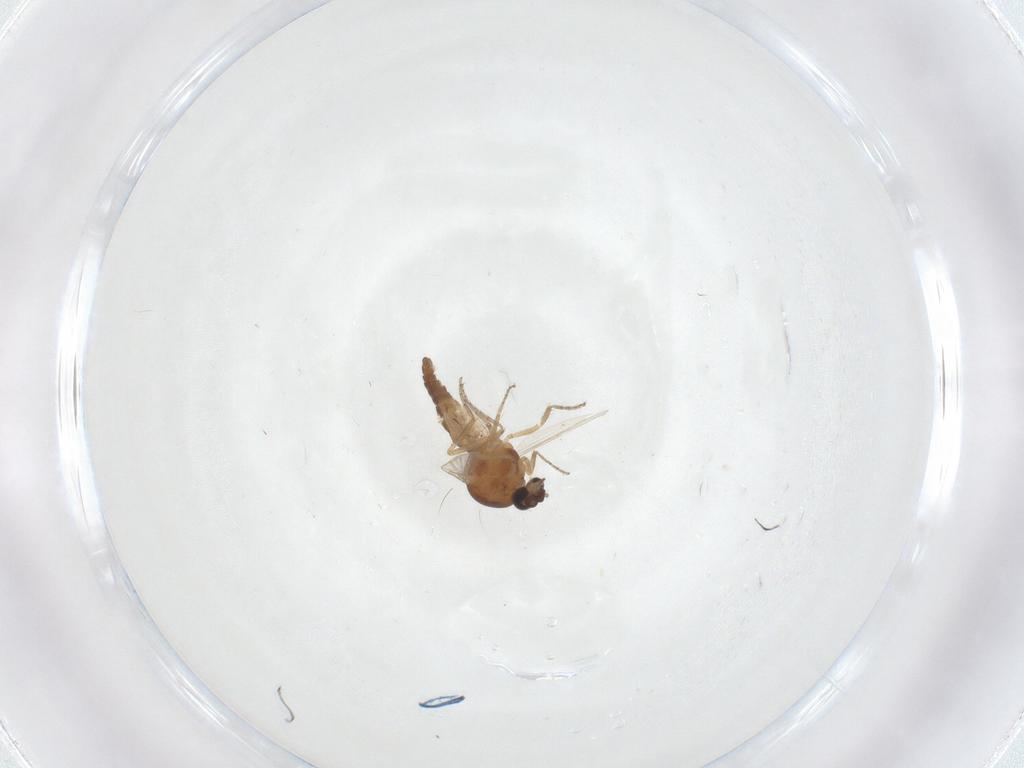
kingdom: Animalia
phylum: Arthropoda
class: Insecta
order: Diptera
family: Ceratopogonidae
